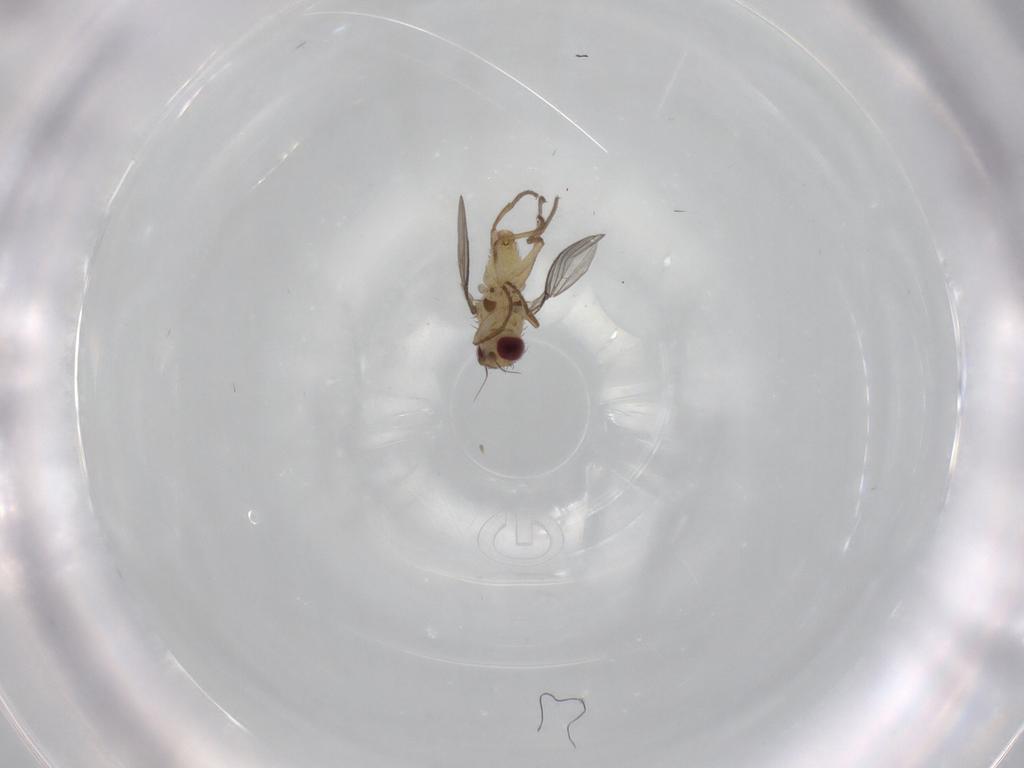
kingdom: Animalia
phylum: Arthropoda
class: Insecta
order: Diptera
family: Agromyzidae
